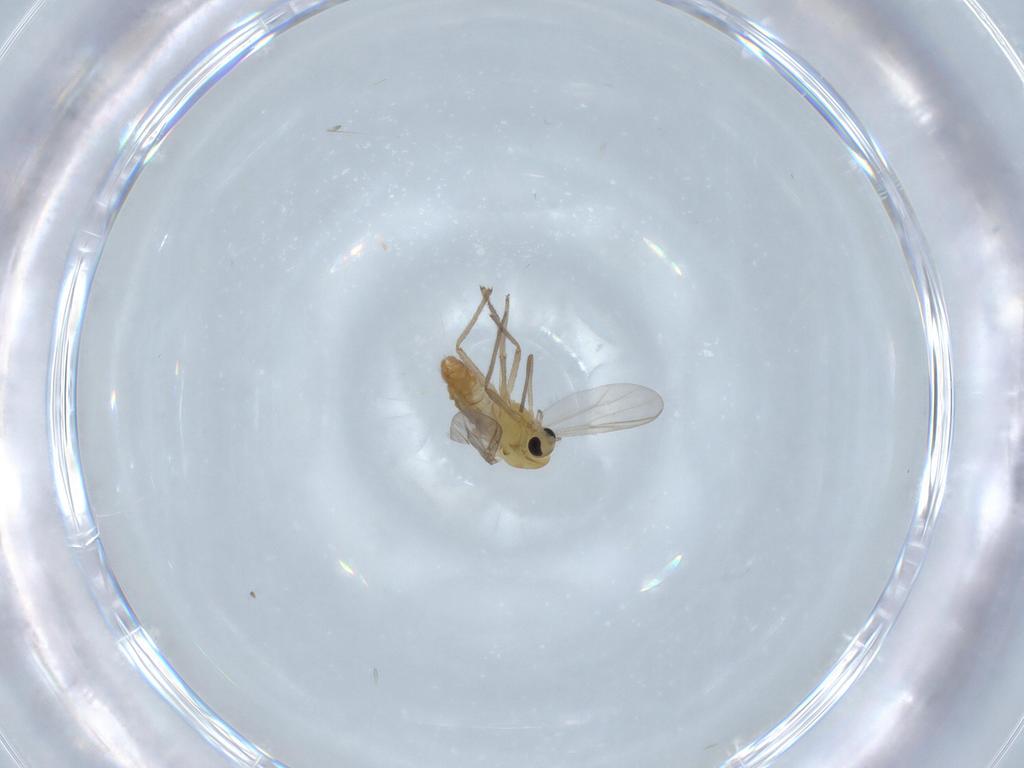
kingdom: Animalia
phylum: Arthropoda
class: Insecta
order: Diptera
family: Chironomidae
